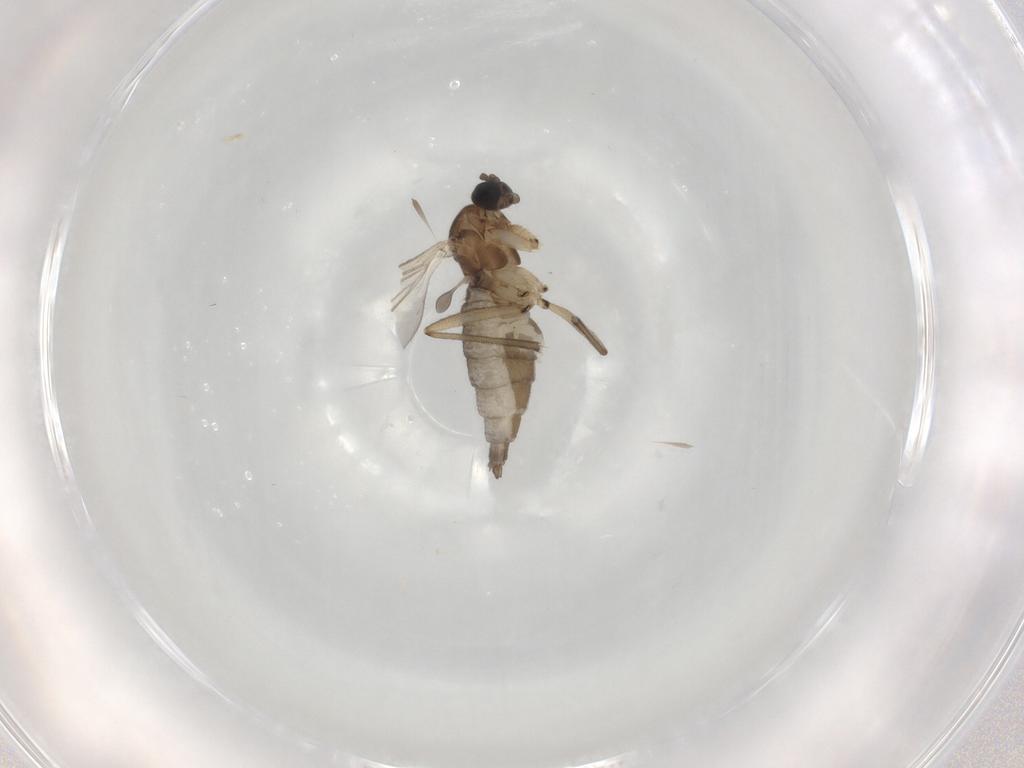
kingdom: Animalia
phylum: Arthropoda
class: Insecta
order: Diptera
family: Sciaridae
